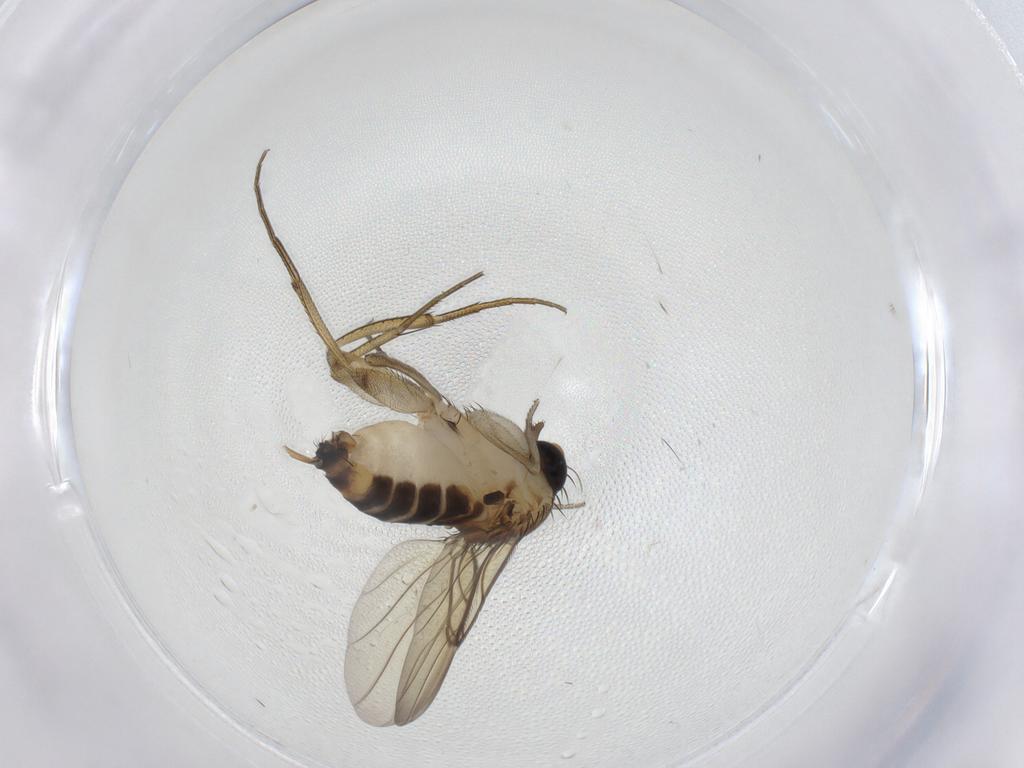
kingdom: Animalia
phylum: Arthropoda
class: Insecta
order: Diptera
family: Phoridae
